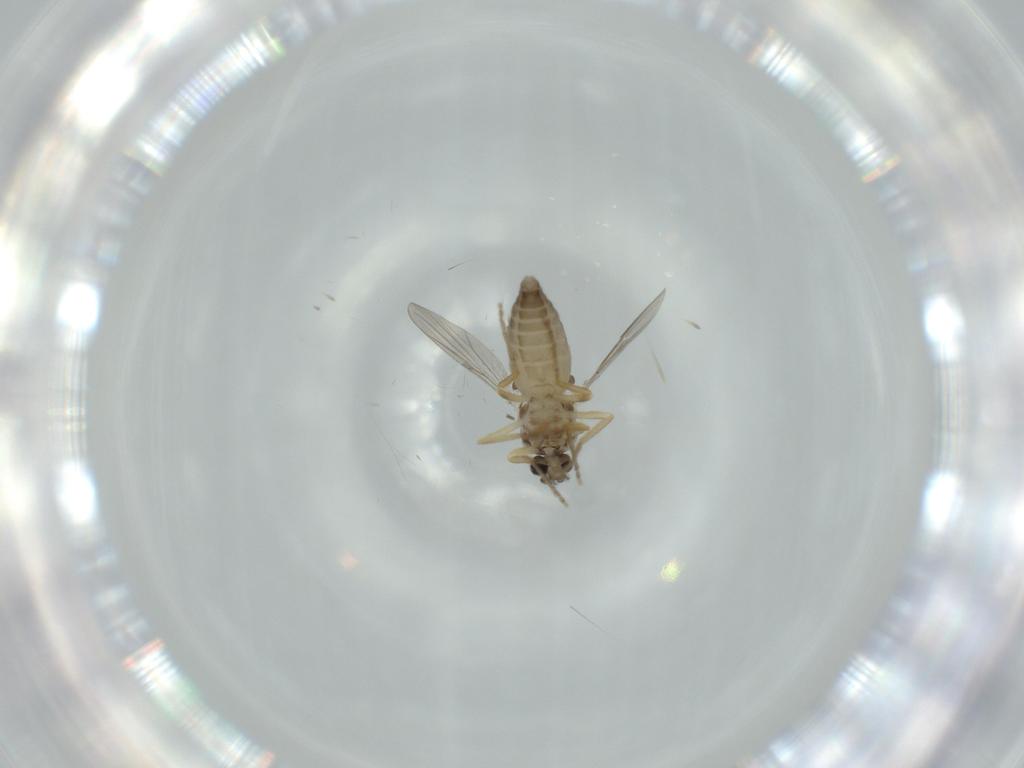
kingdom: Animalia
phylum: Arthropoda
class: Insecta
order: Diptera
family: Ceratopogonidae
